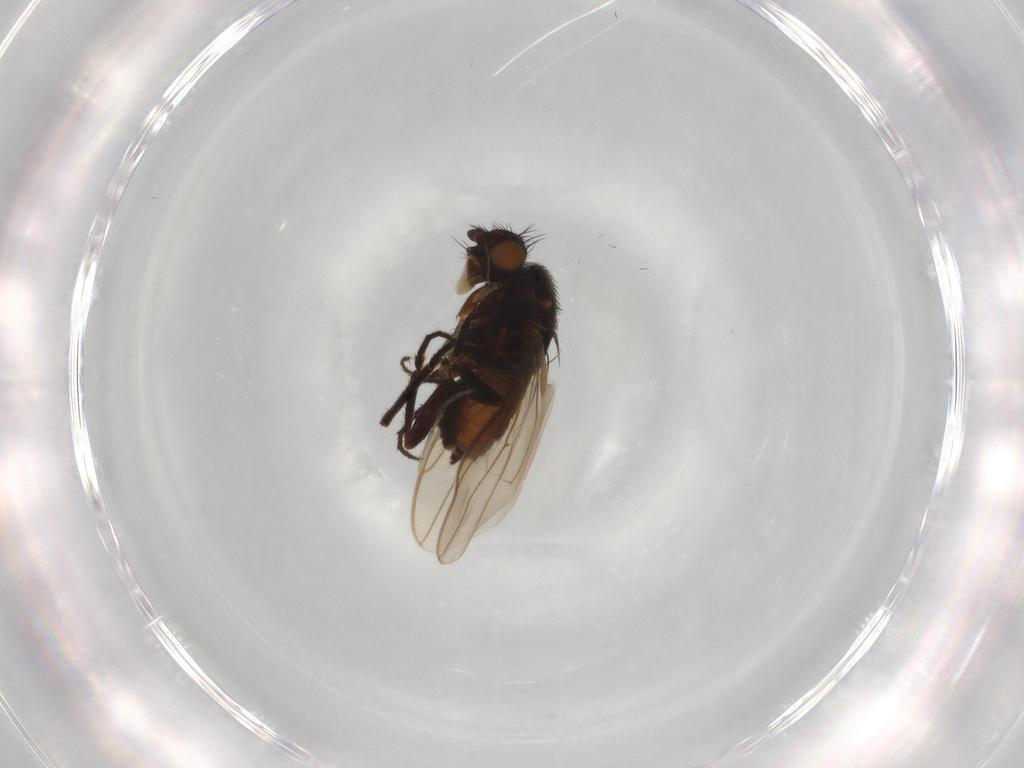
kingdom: Animalia
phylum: Arthropoda
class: Insecta
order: Diptera
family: Sphaeroceridae
